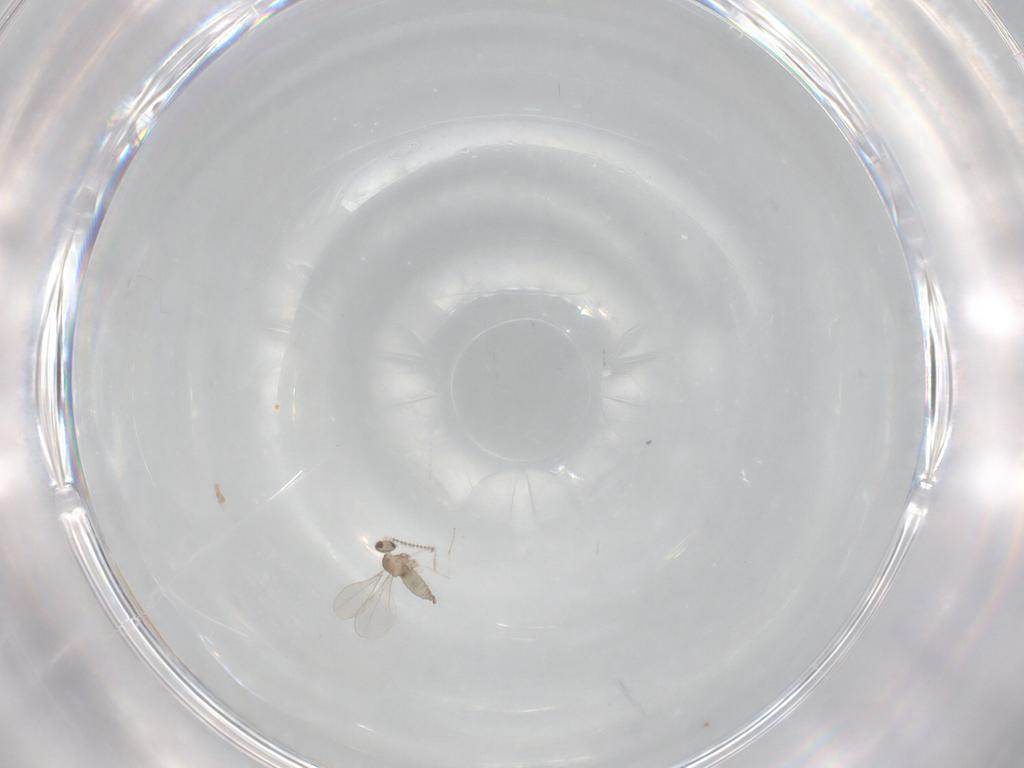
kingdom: Animalia
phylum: Arthropoda
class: Insecta
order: Diptera
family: Cecidomyiidae
